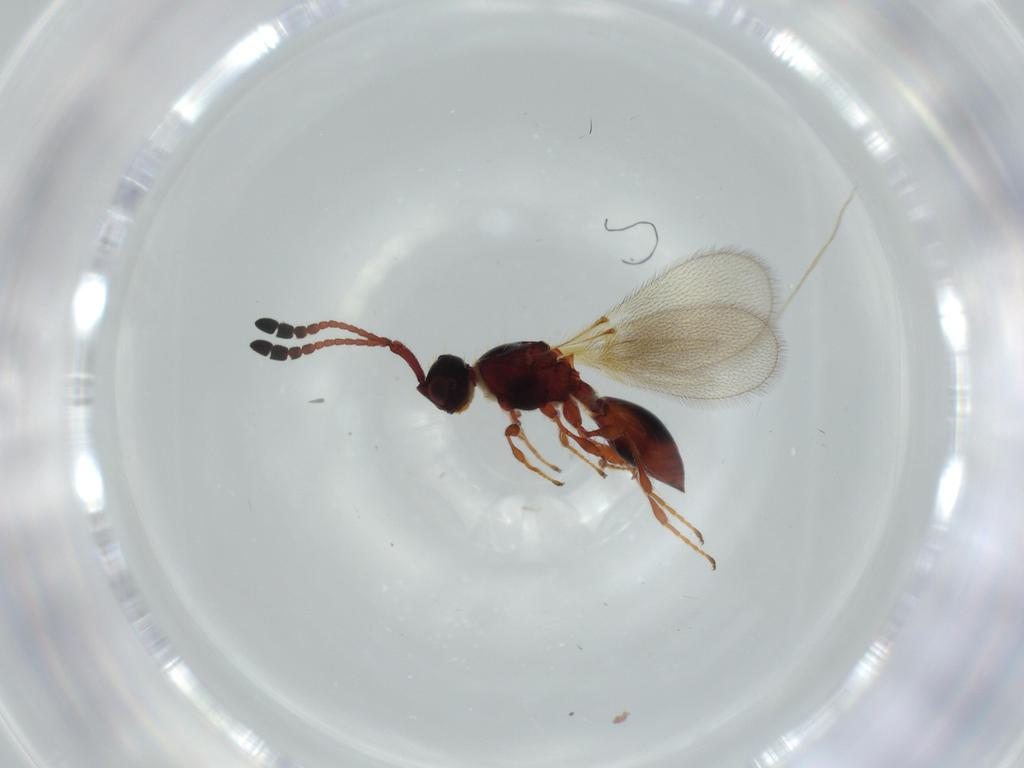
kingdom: Animalia
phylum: Arthropoda
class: Insecta
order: Hymenoptera
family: Diapriidae
